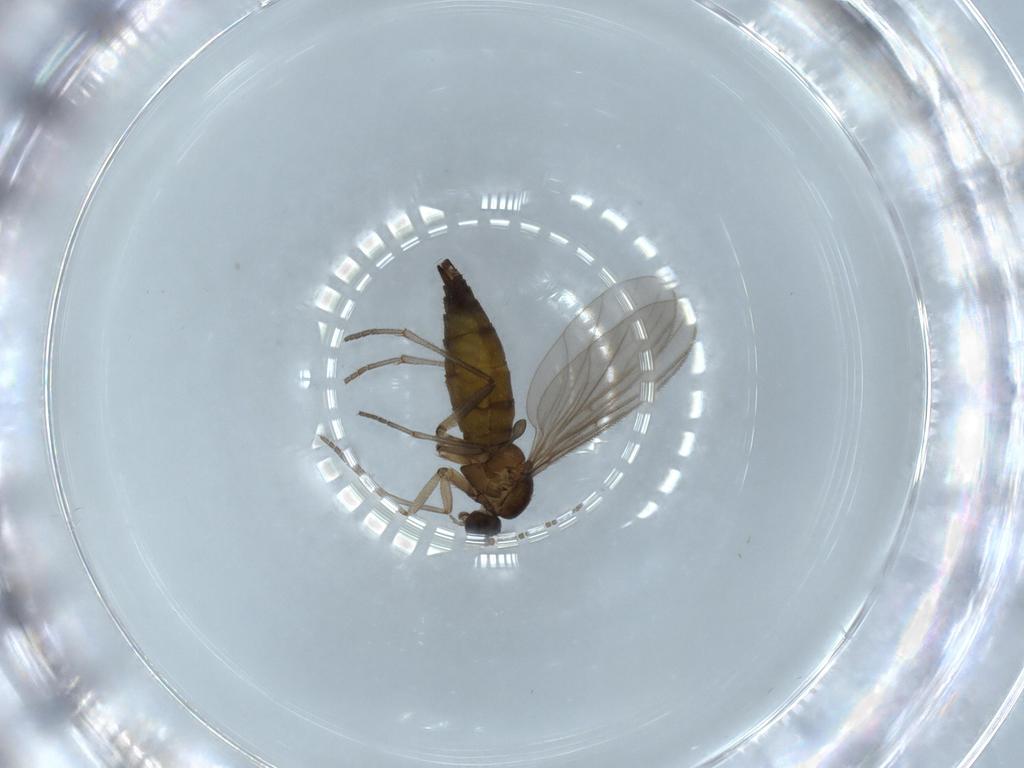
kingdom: Animalia
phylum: Arthropoda
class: Insecta
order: Diptera
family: Sciaridae
